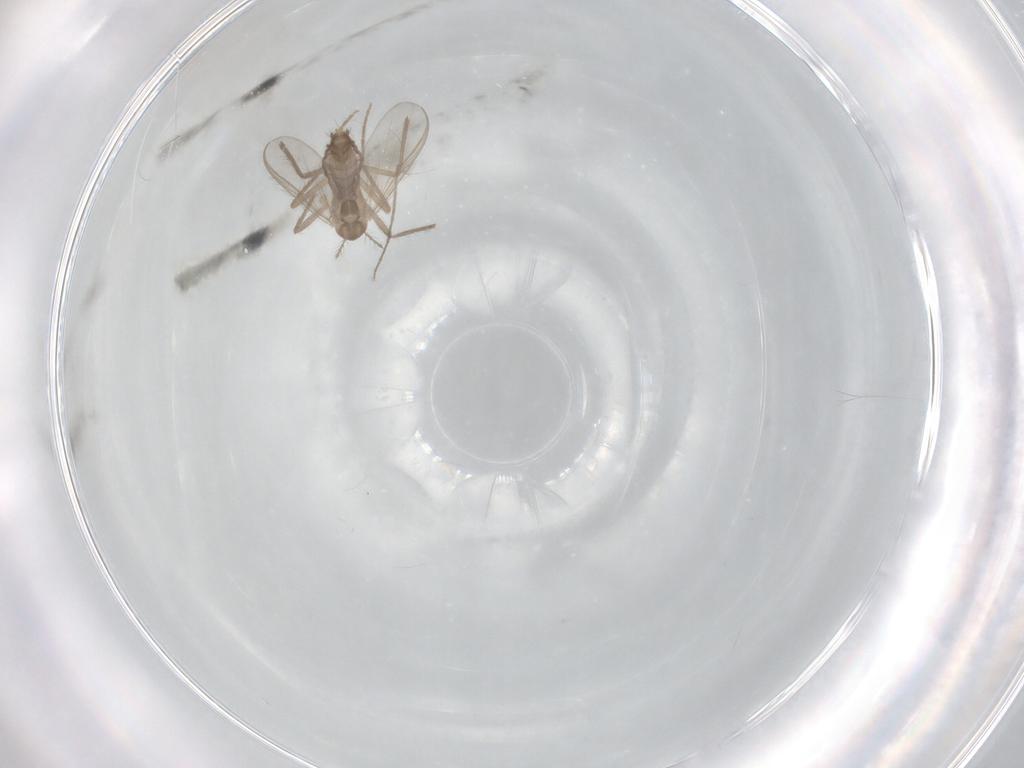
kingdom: Animalia
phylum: Arthropoda
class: Insecta
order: Diptera
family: Chironomidae
